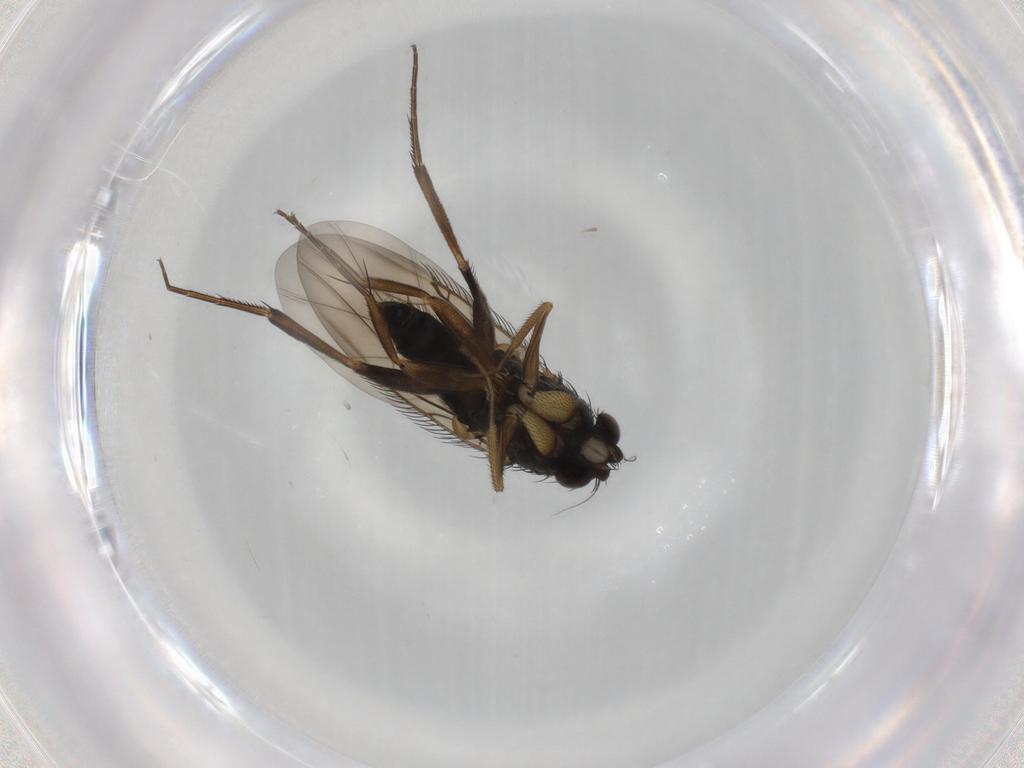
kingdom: Animalia
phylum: Arthropoda
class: Insecta
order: Diptera
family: Phoridae
